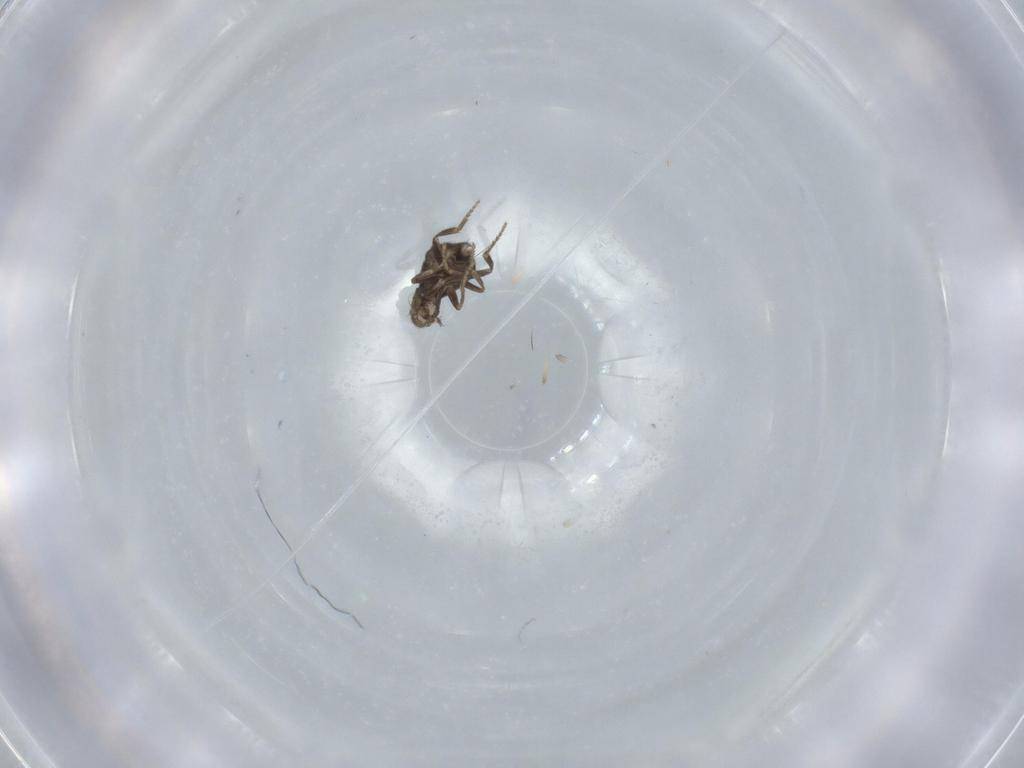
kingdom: Animalia
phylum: Arthropoda
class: Insecta
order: Diptera
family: Phoridae
